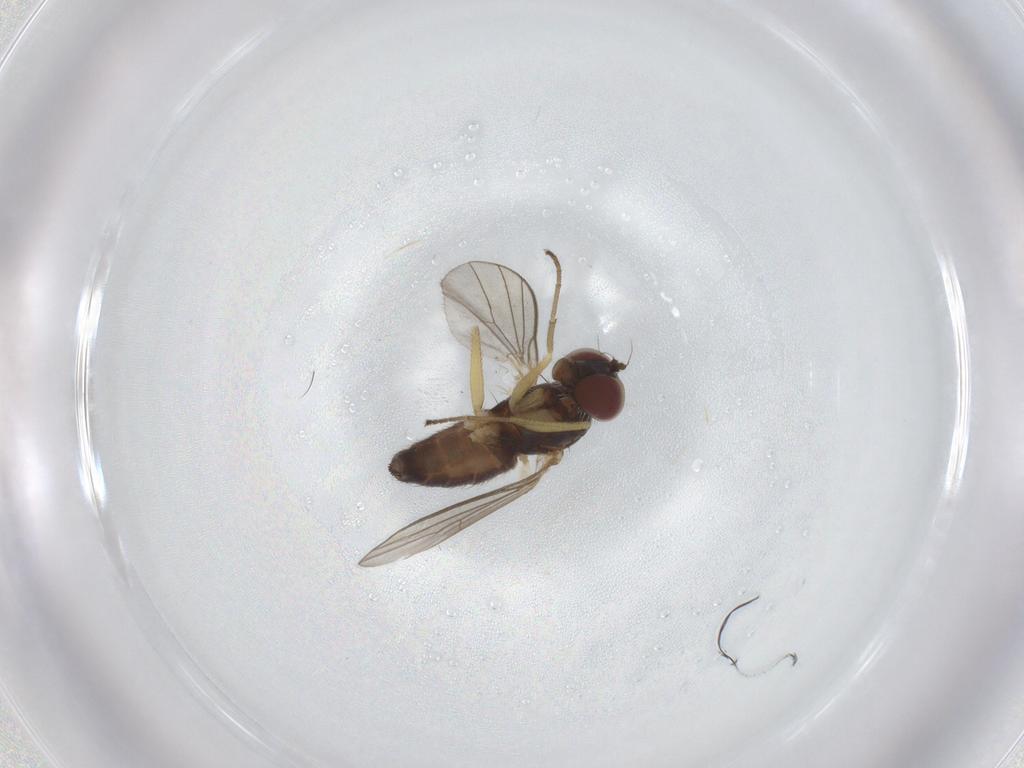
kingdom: Animalia
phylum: Arthropoda
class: Insecta
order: Diptera
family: Dolichopodidae
